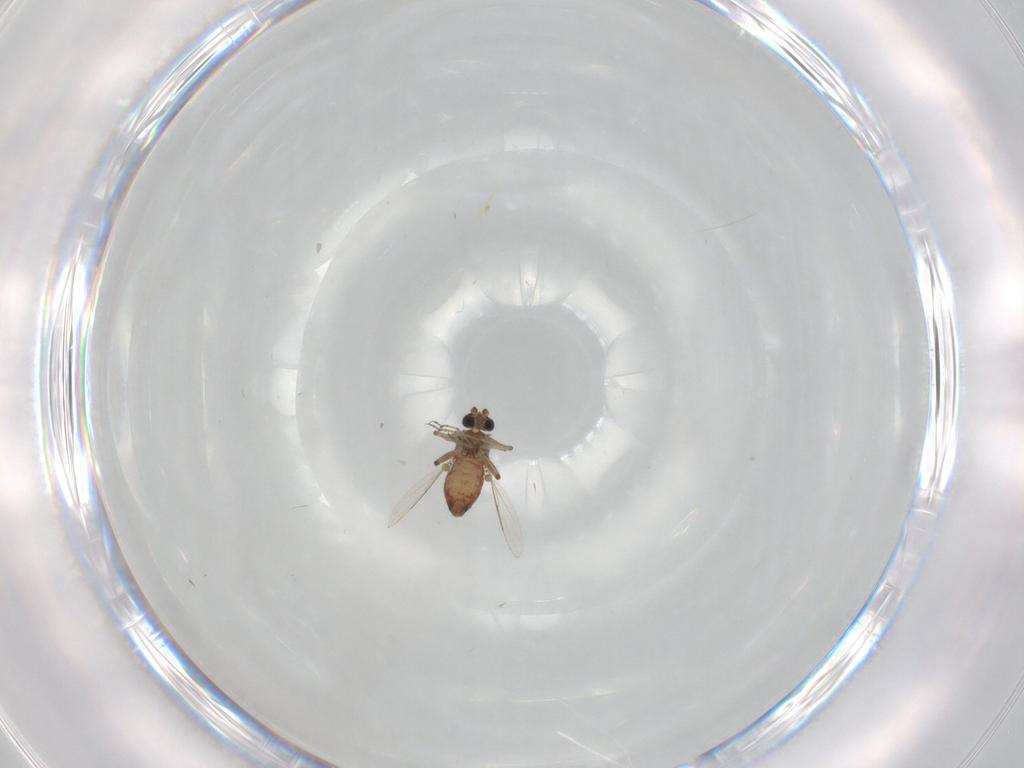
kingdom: Animalia
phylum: Arthropoda
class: Insecta
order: Diptera
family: Ceratopogonidae
